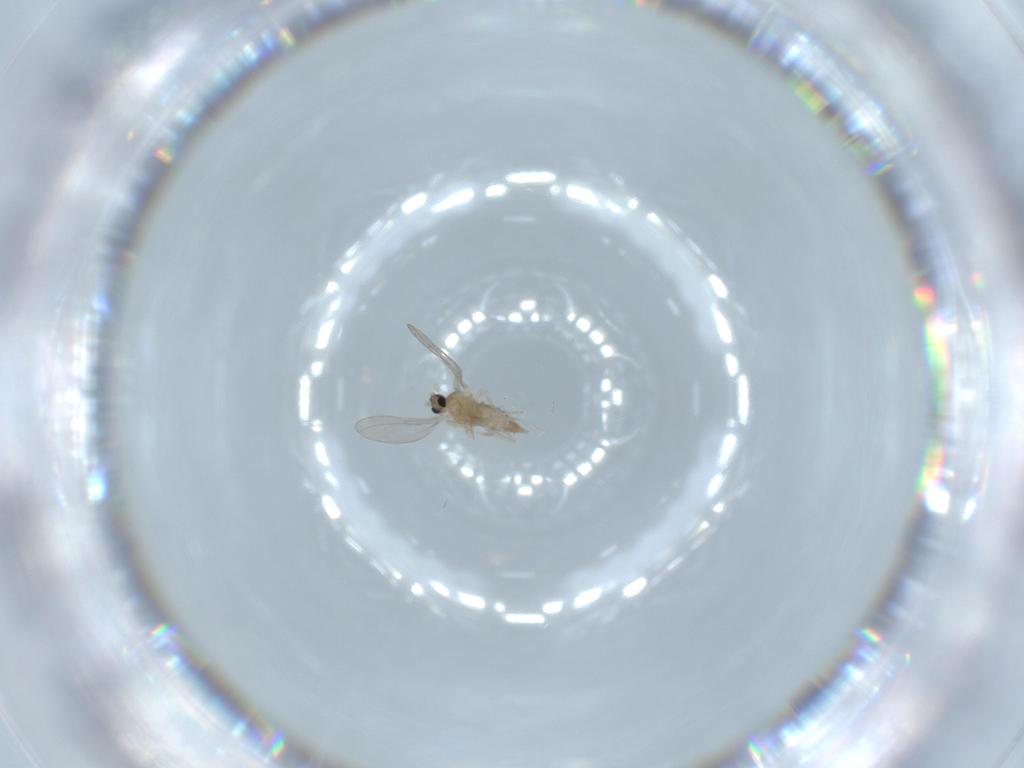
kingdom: Animalia
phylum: Arthropoda
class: Insecta
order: Diptera
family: Cecidomyiidae
